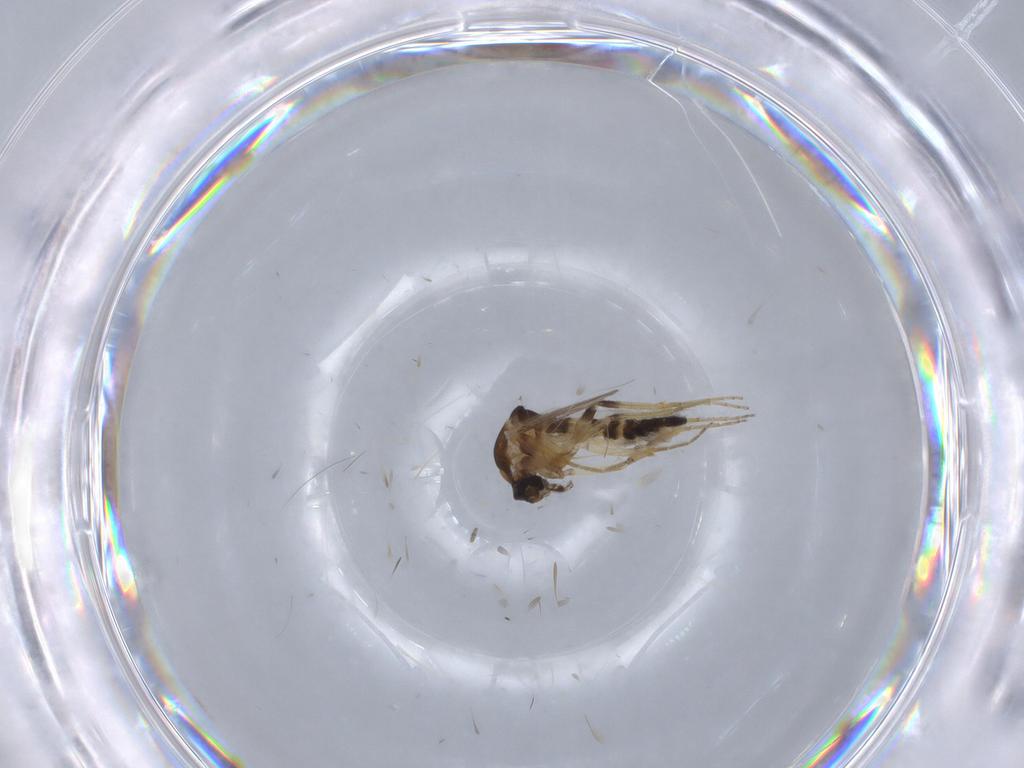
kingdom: Animalia
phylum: Arthropoda
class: Insecta
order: Diptera
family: Ceratopogonidae
